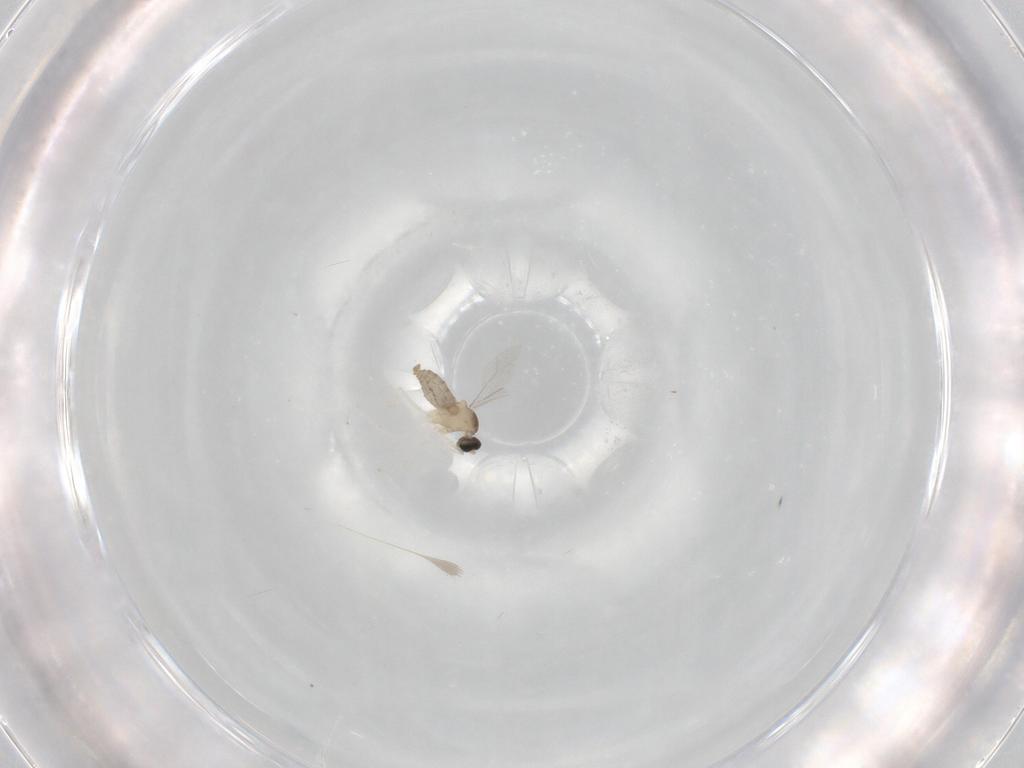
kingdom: Animalia
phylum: Arthropoda
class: Insecta
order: Diptera
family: Cecidomyiidae
